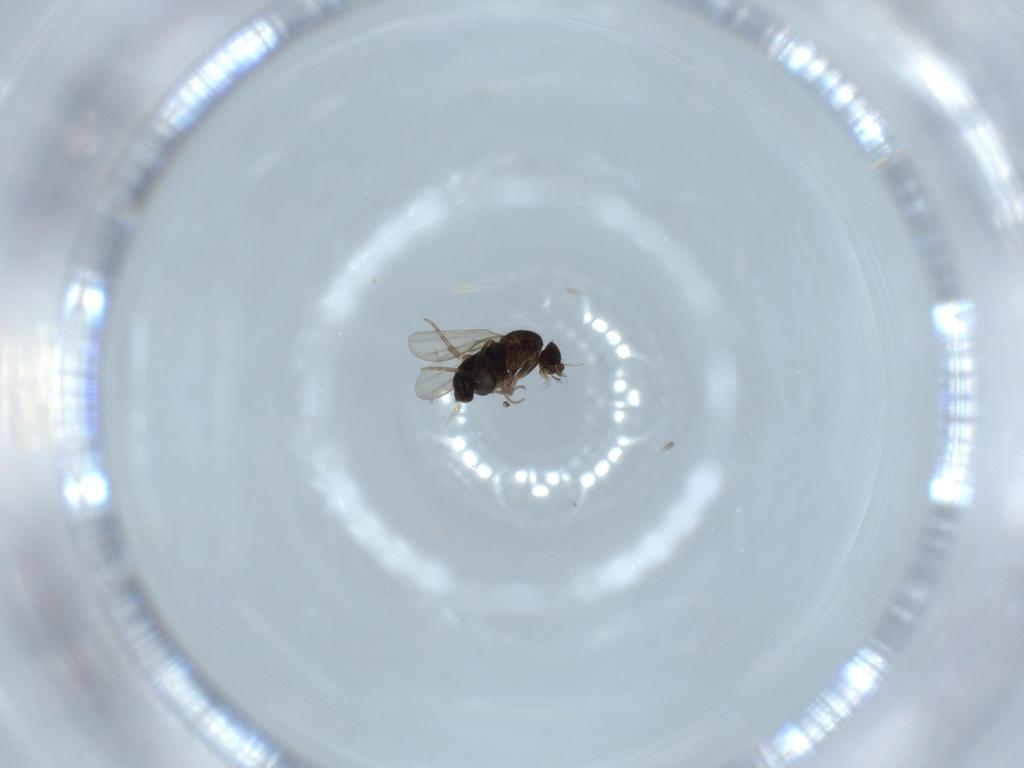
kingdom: Animalia
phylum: Arthropoda
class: Insecta
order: Diptera
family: Phoridae
